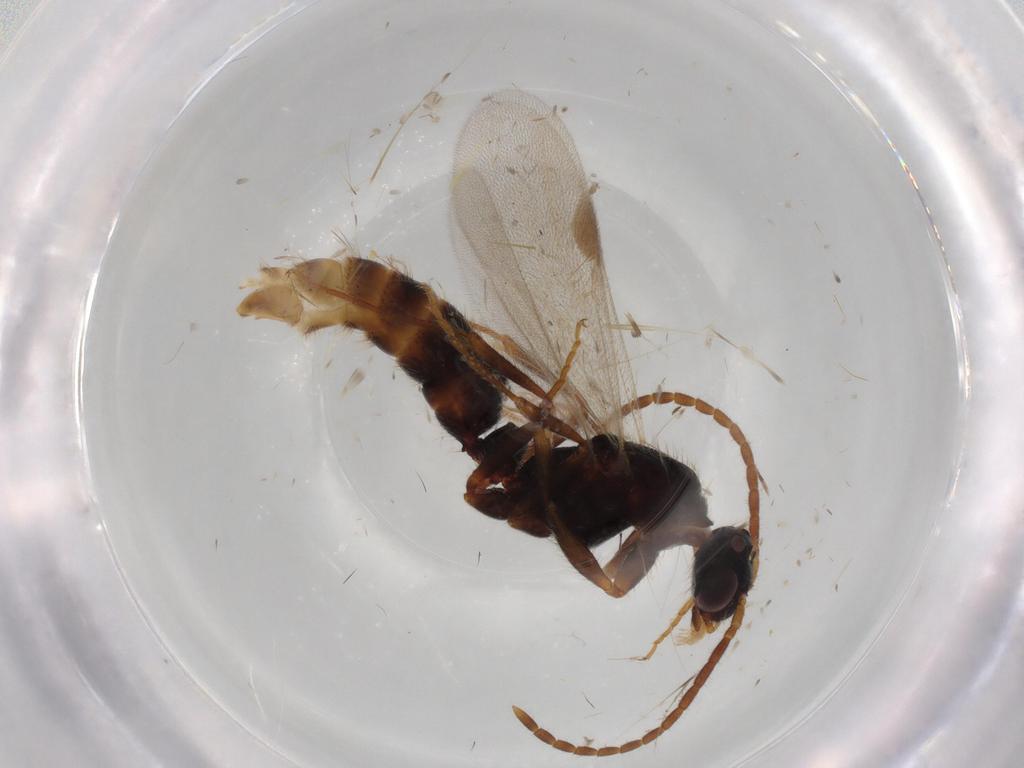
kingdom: Animalia
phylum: Arthropoda
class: Insecta
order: Hymenoptera
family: Formicidae
